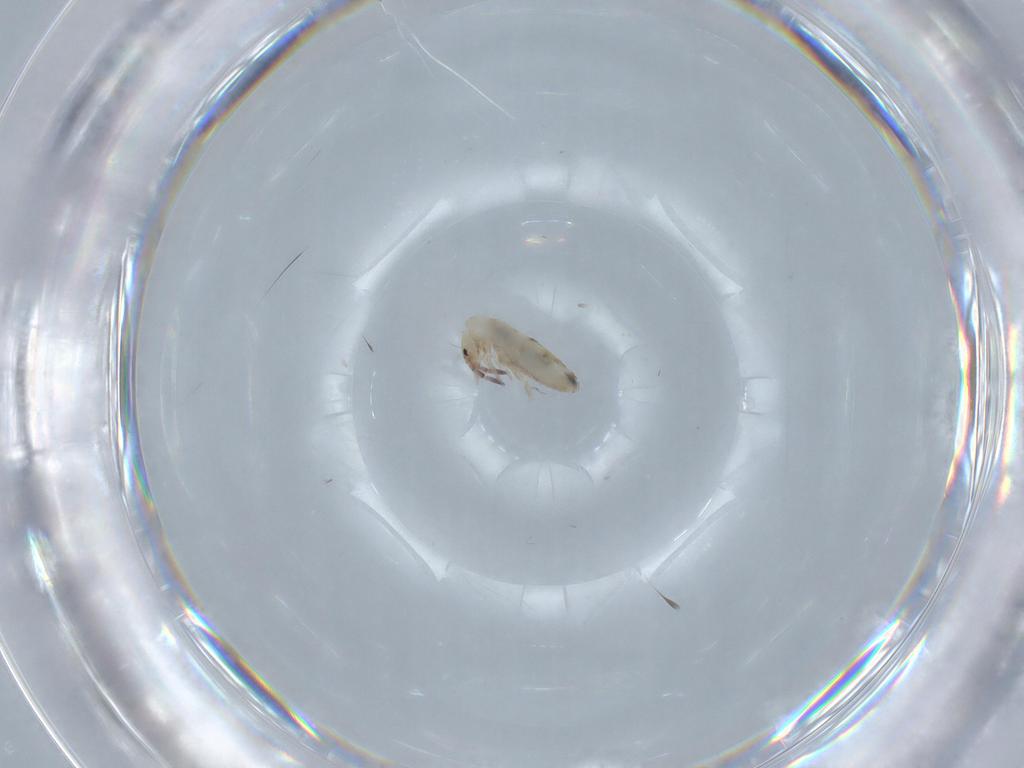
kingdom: Animalia
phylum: Arthropoda
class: Collembola
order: Entomobryomorpha
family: Entomobryidae
